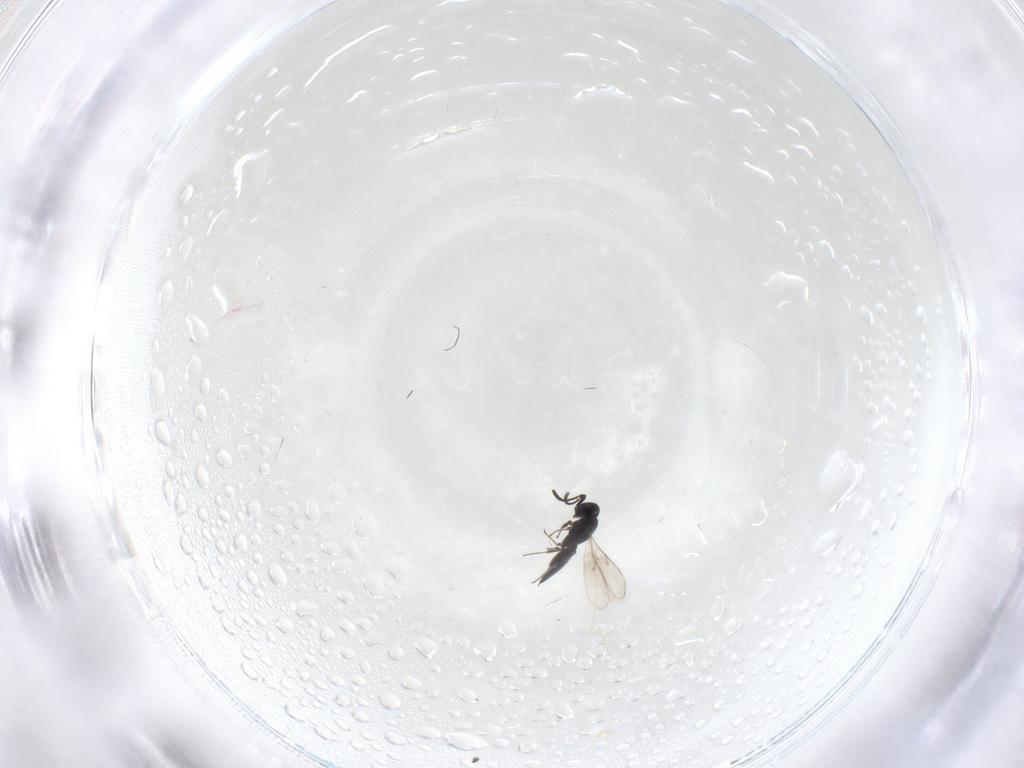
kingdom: Animalia
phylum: Arthropoda
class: Insecta
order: Hymenoptera
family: Scelionidae
